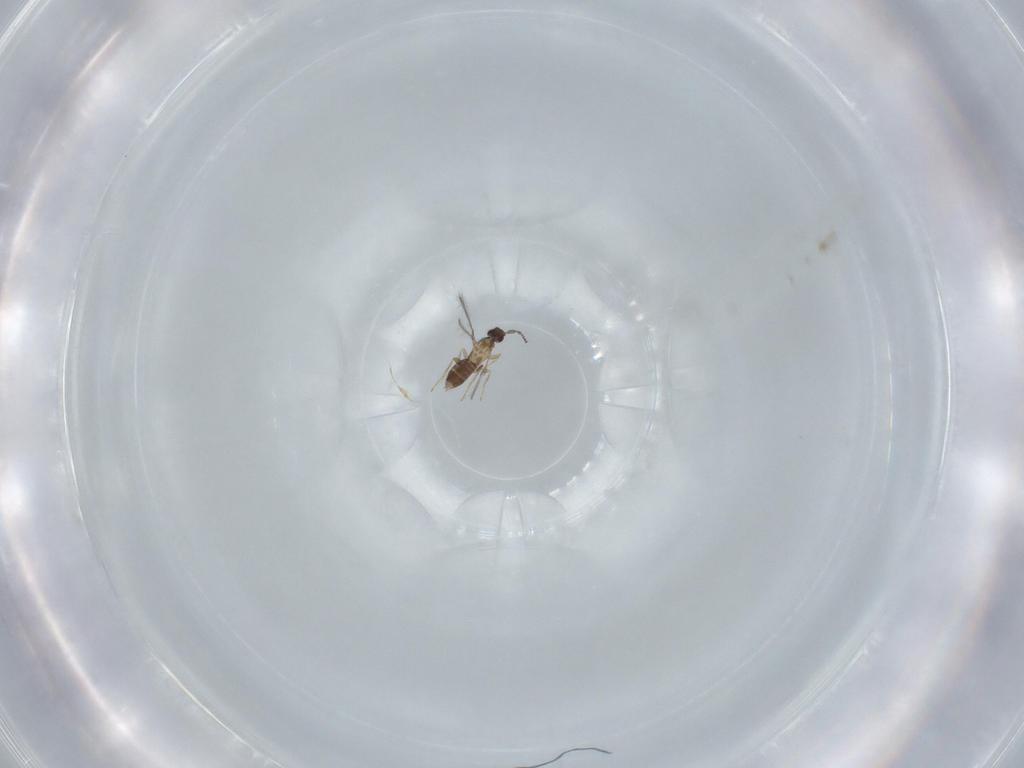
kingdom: Animalia
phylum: Arthropoda
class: Insecta
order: Hymenoptera
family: Mymaridae
